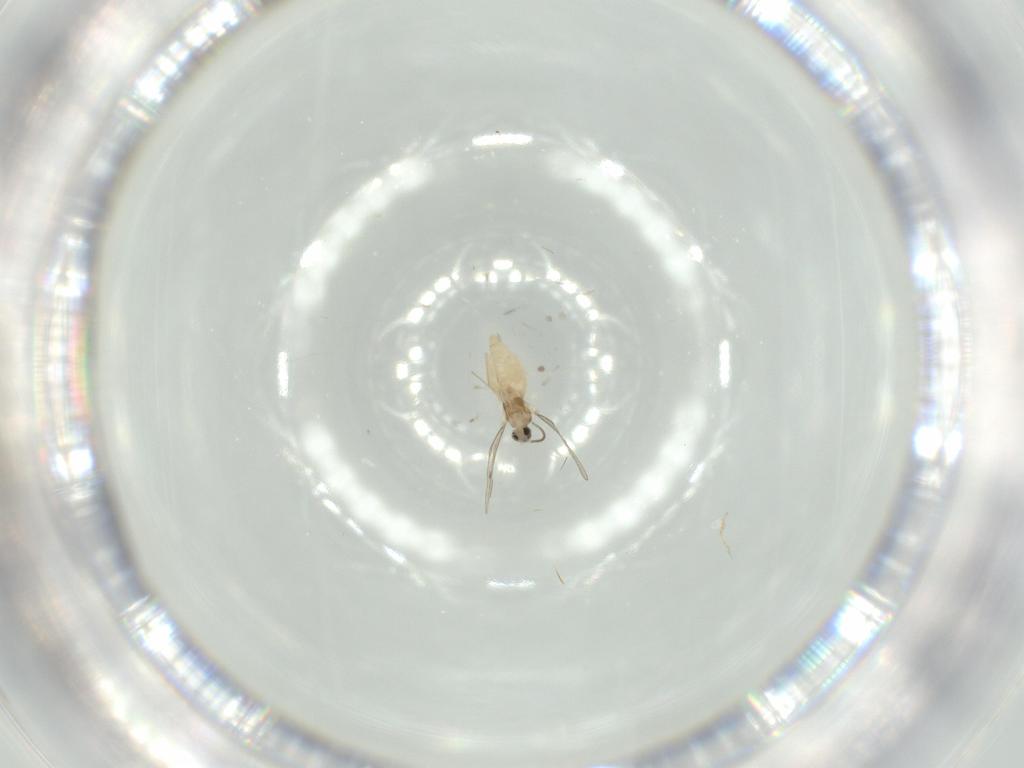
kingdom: Animalia
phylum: Arthropoda
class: Insecta
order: Diptera
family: Cecidomyiidae
